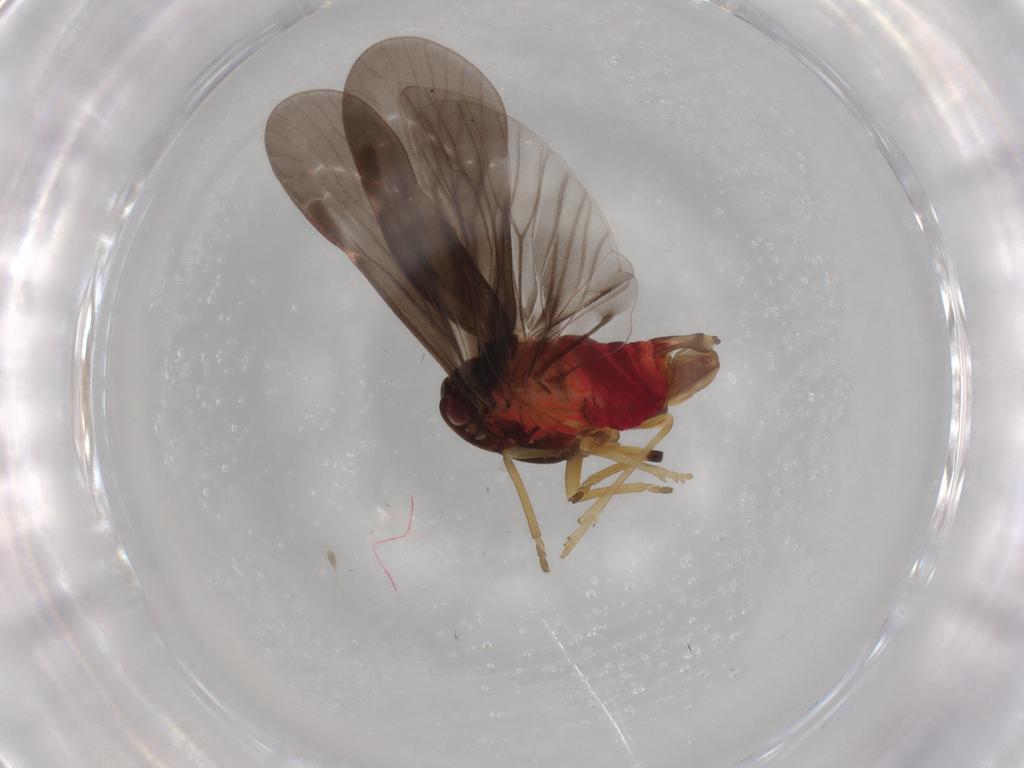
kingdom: Animalia
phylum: Arthropoda
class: Insecta
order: Hemiptera
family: Derbidae
